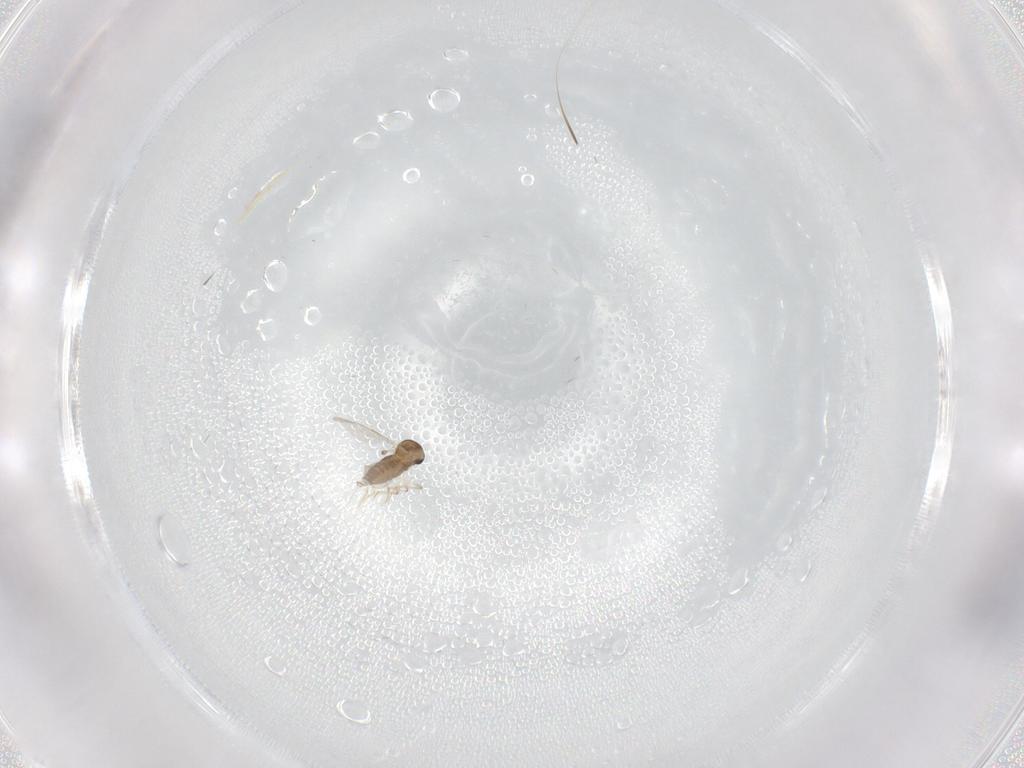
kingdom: Animalia
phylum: Arthropoda
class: Insecta
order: Diptera
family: Ceratopogonidae
